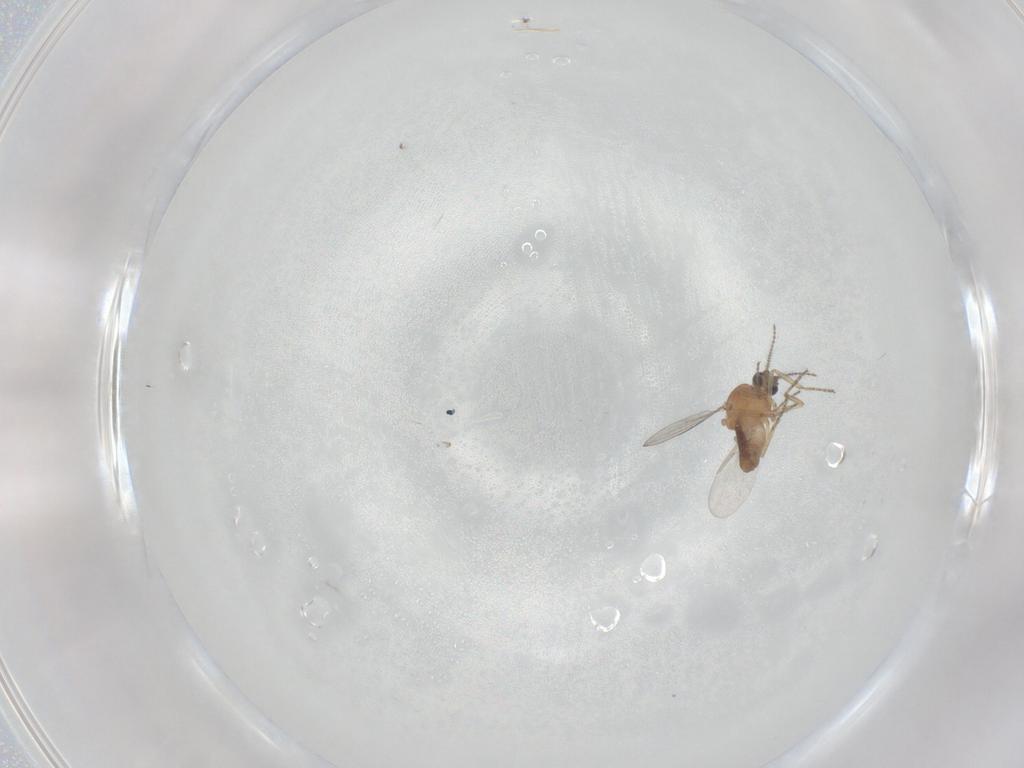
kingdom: Animalia
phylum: Arthropoda
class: Insecta
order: Diptera
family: Ceratopogonidae
